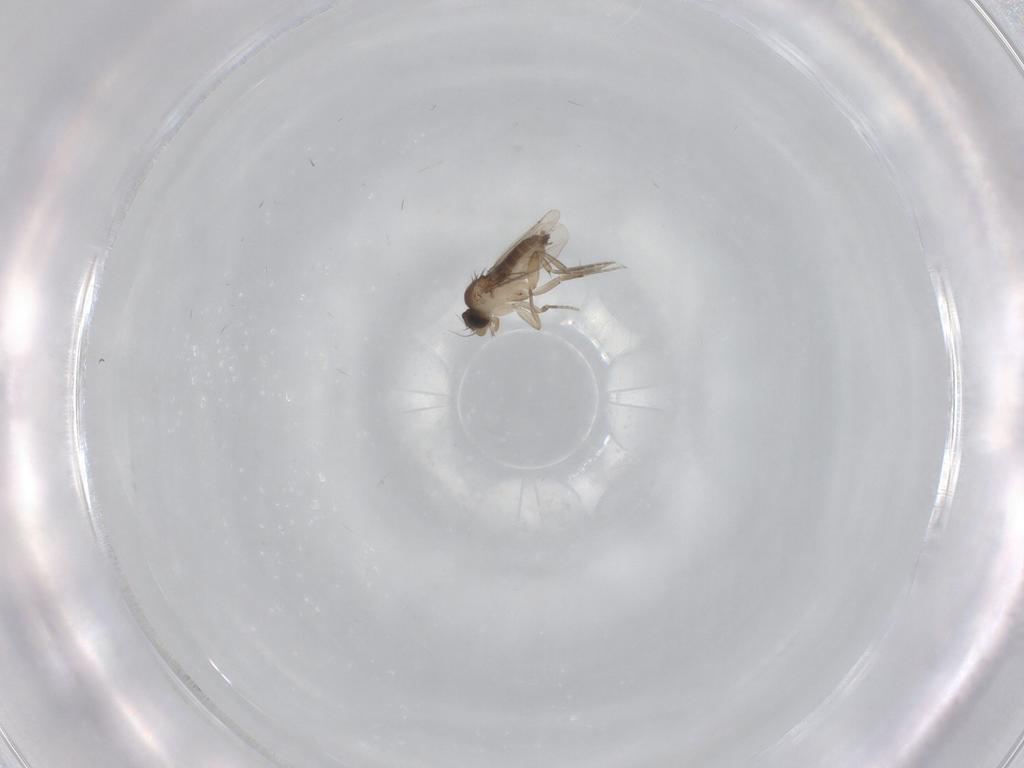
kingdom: Animalia
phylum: Arthropoda
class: Insecta
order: Diptera
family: Phoridae
